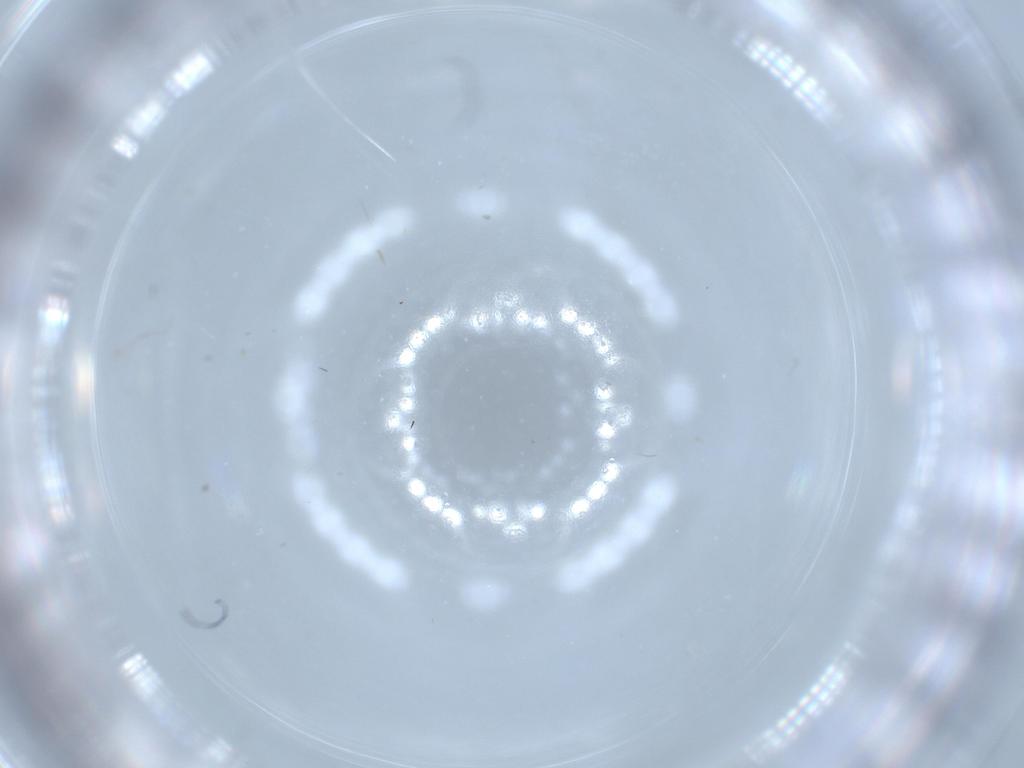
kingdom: Animalia
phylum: Arthropoda
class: Insecta
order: Diptera
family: Cecidomyiidae
